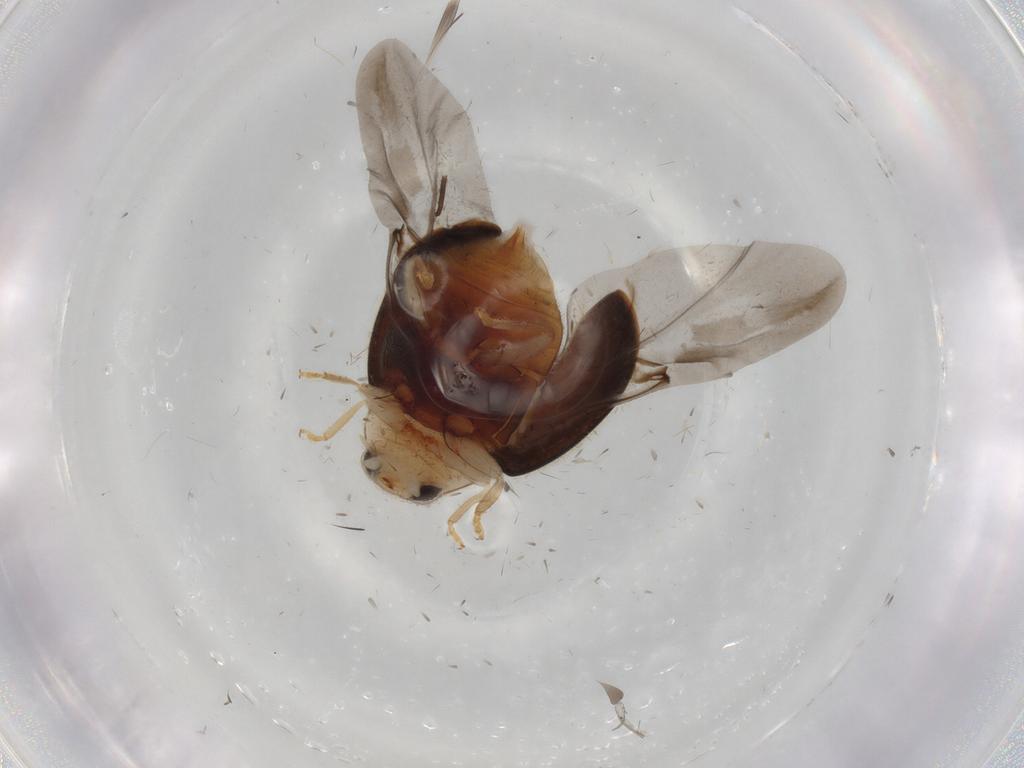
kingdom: Animalia
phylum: Arthropoda
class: Insecta
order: Coleoptera
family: Coccinellidae
